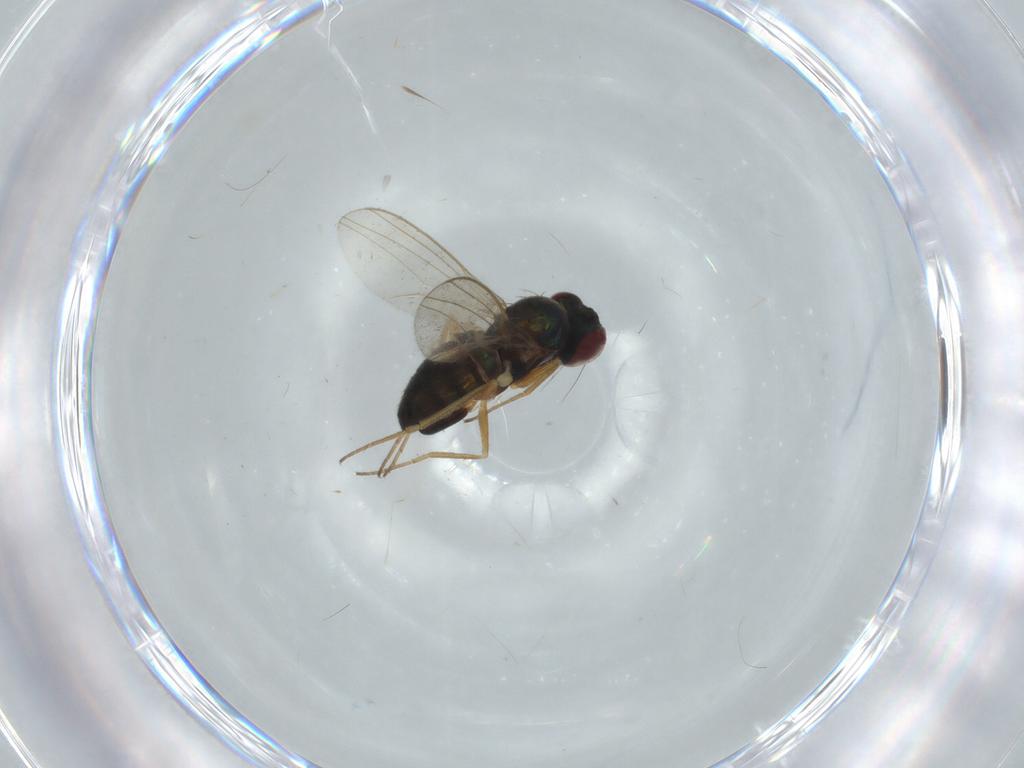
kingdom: Animalia
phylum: Arthropoda
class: Insecta
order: Diptera
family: Dolichopodidae
